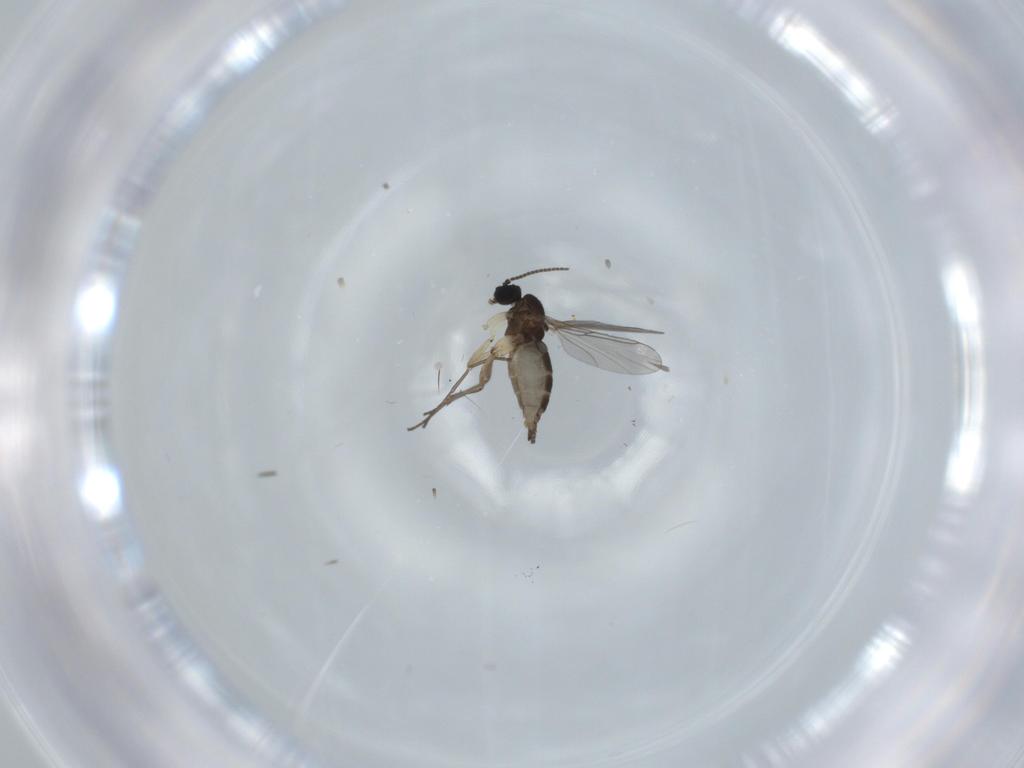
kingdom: Animalia
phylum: Arthropoda
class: Insecta
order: Diptera
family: Sciaridae
